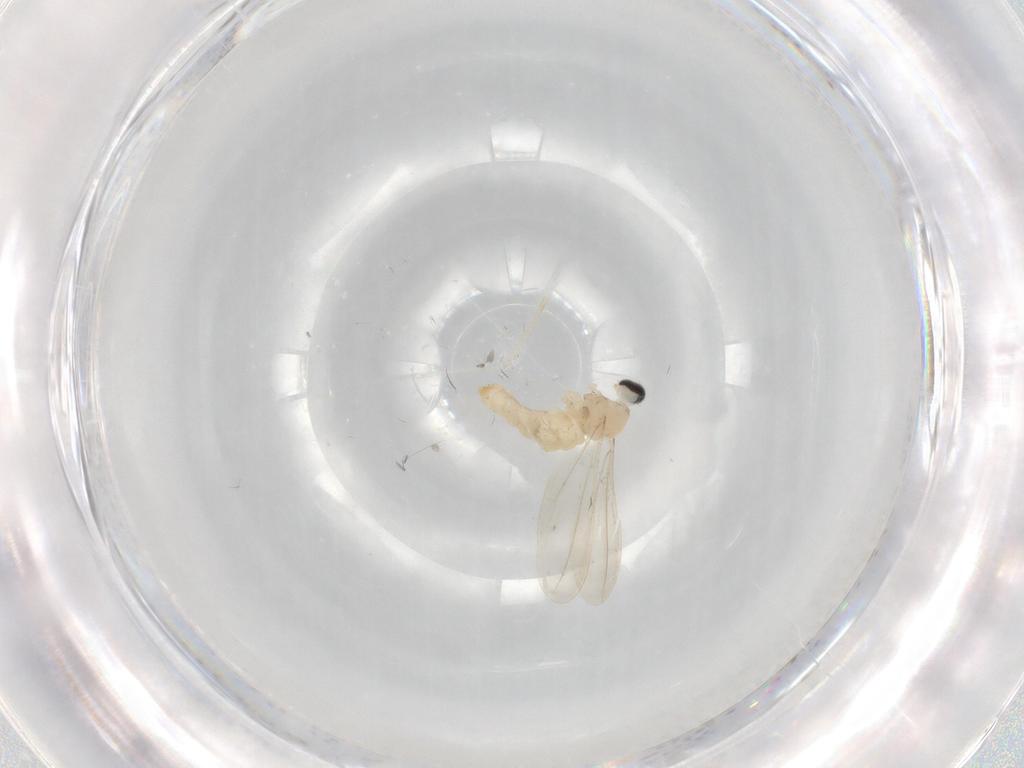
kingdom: Animalia
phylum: Arthropoda
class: Insecta
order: Diptera
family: Cecidomyiidae
